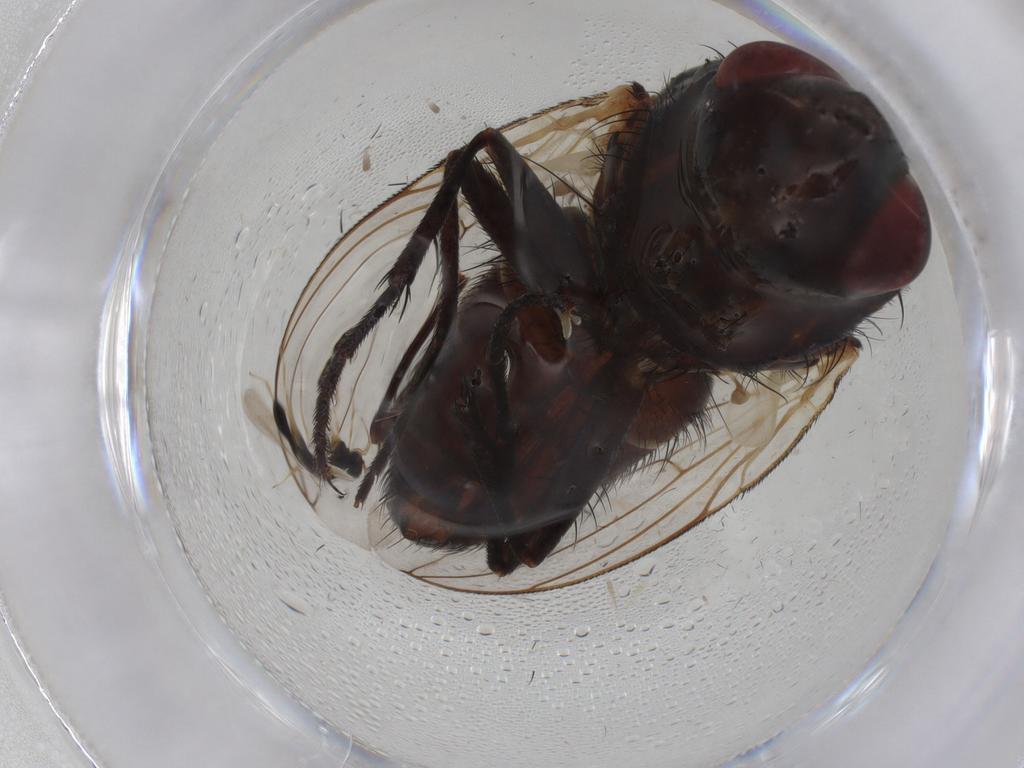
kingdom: Animalia
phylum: Arthropoda
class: Insecta
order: Diptera
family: Sarcophagidae
